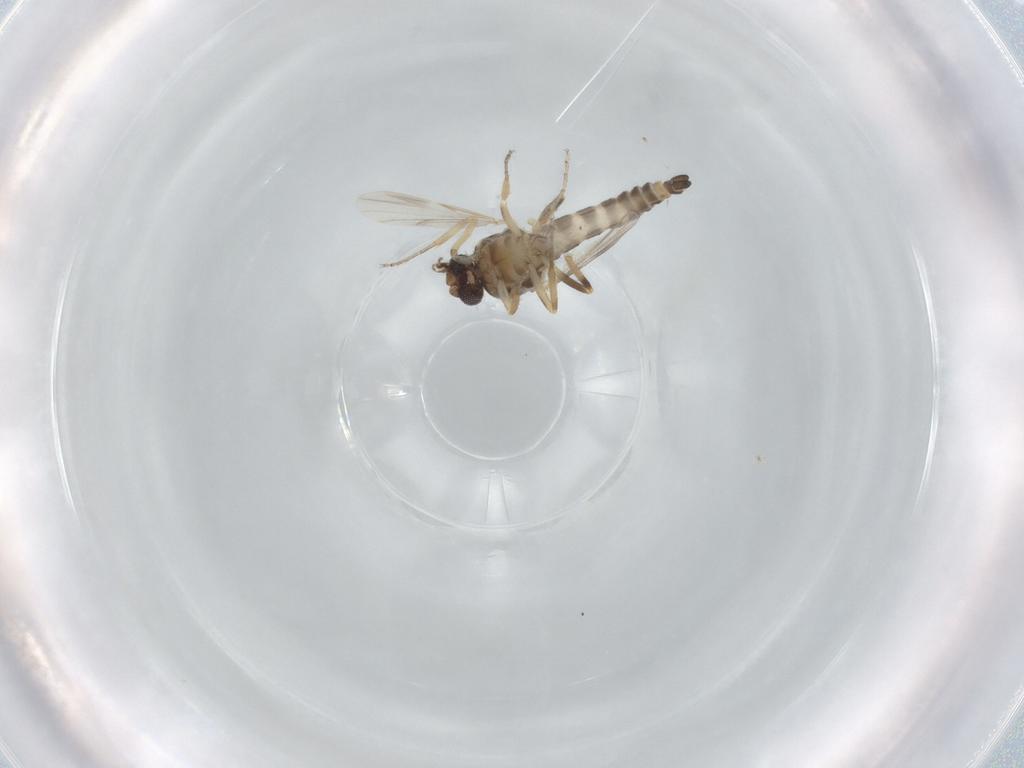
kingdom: Animalia
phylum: Arthropoda
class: Insecta
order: Diptera
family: Ceratopogonidae
